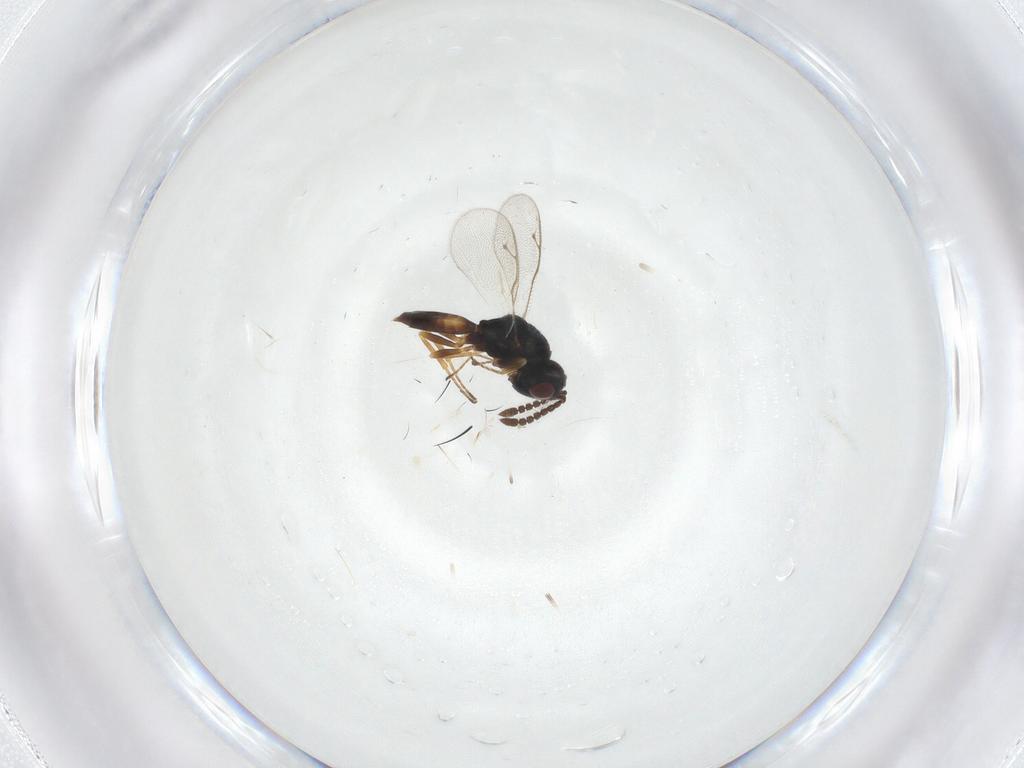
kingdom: Animalia
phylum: Arthropoda
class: Insecta
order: Hymenoptera
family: Pteromalidae
